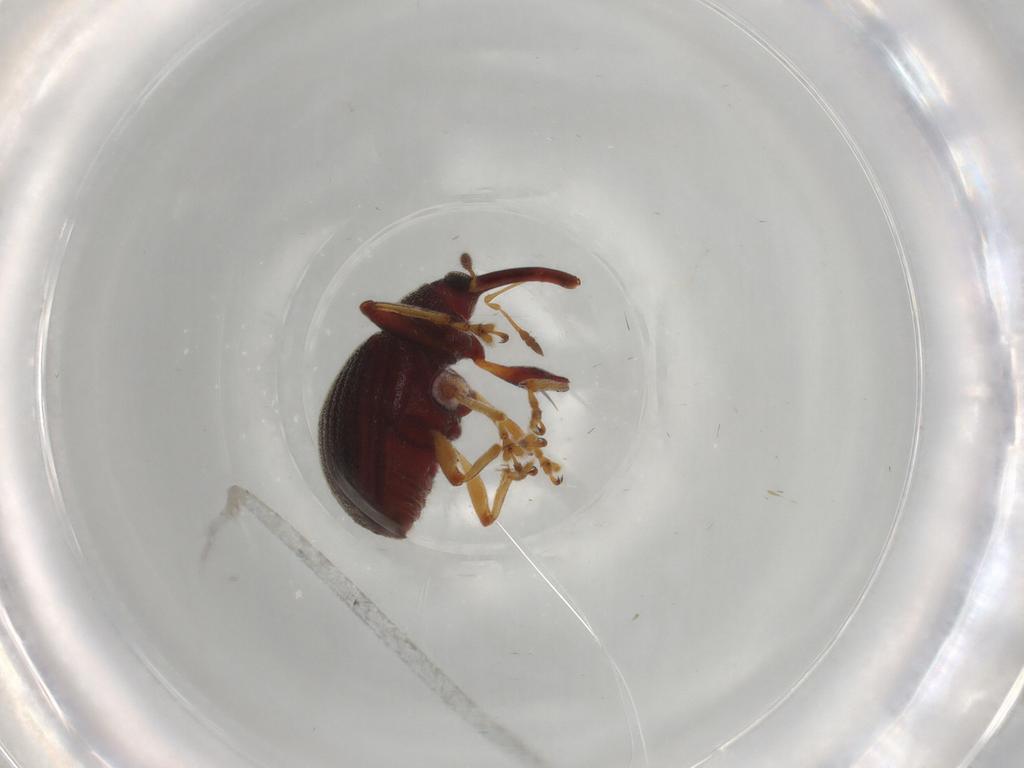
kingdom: Animalia
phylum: Arthropoda
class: Insecta
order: Coleoptera
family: Curculionidae
